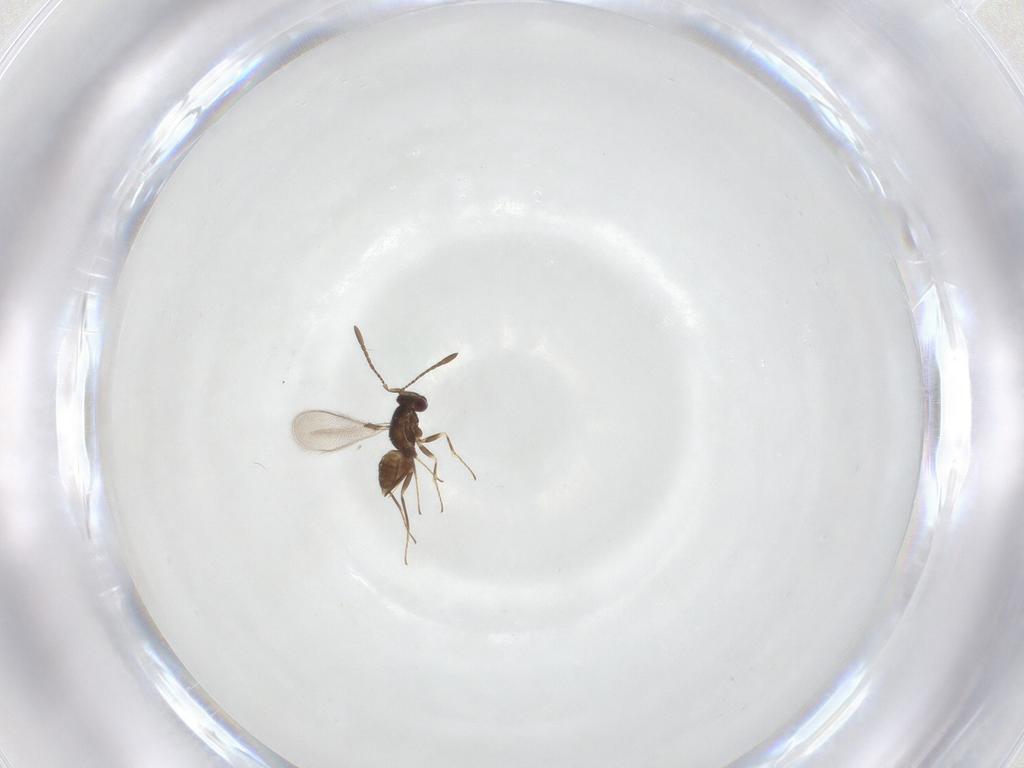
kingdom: Animalia
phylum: Arthropoda
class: Insecta
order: Hymenoptera
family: Mymaridae
